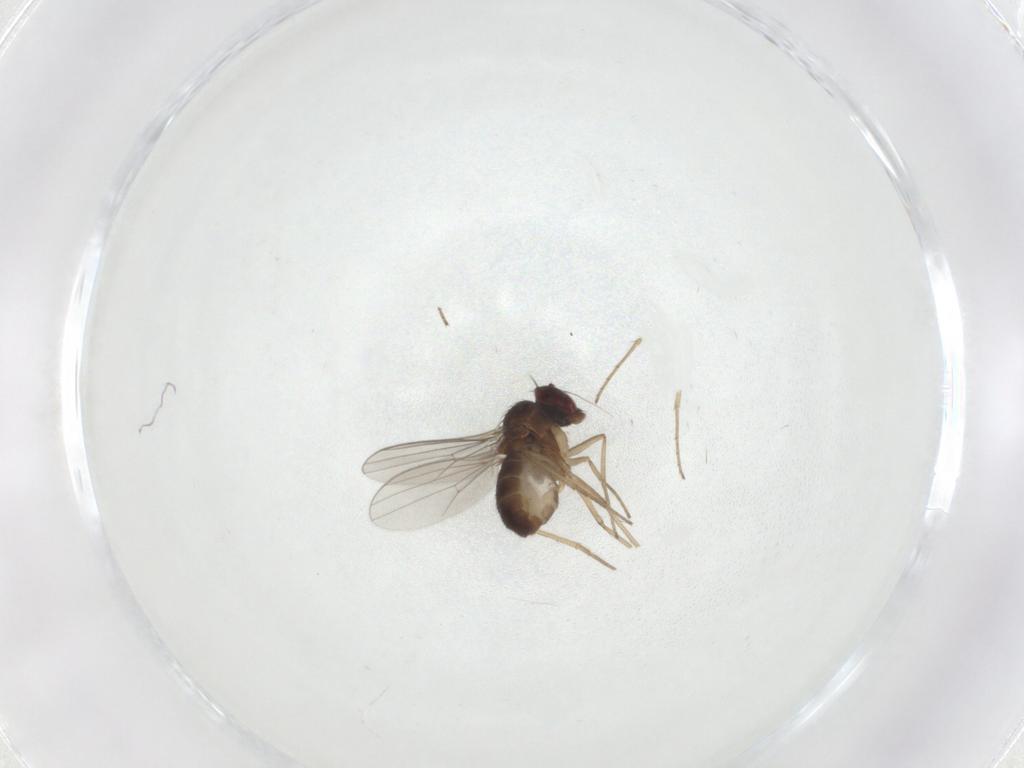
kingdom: Animalia
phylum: Arthropoda
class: Insecta
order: Diptera
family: Dolichopodidae
